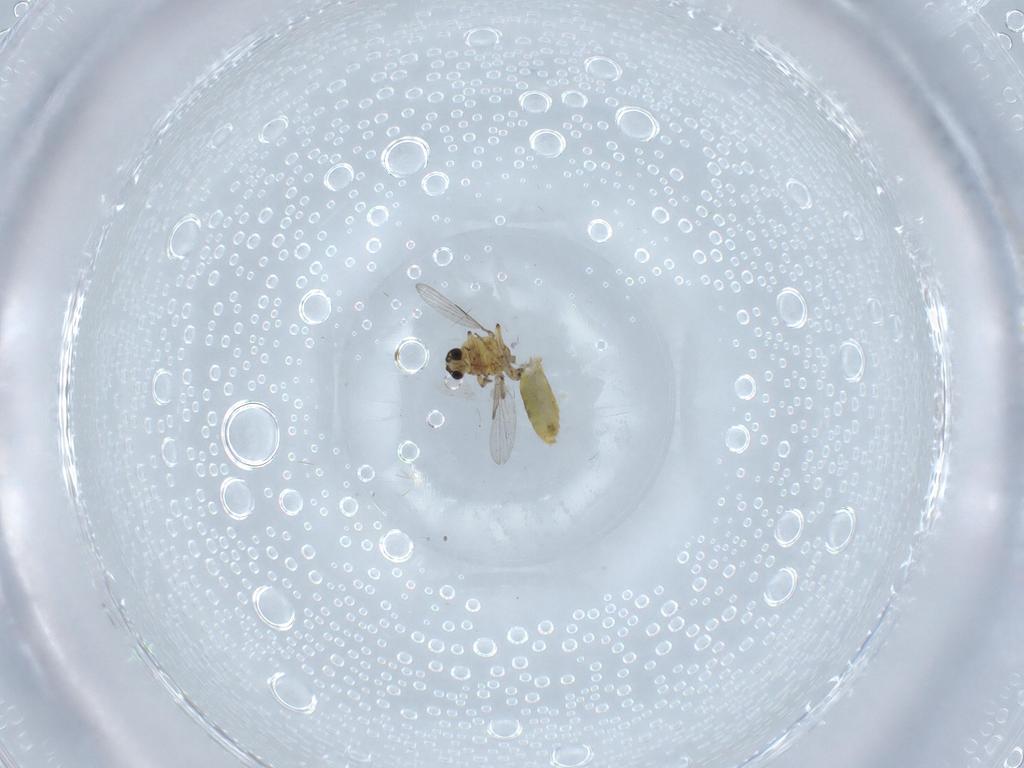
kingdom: Animalia
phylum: Arthropoda
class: Insecta
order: Diptera
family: Ceratopogonidae
